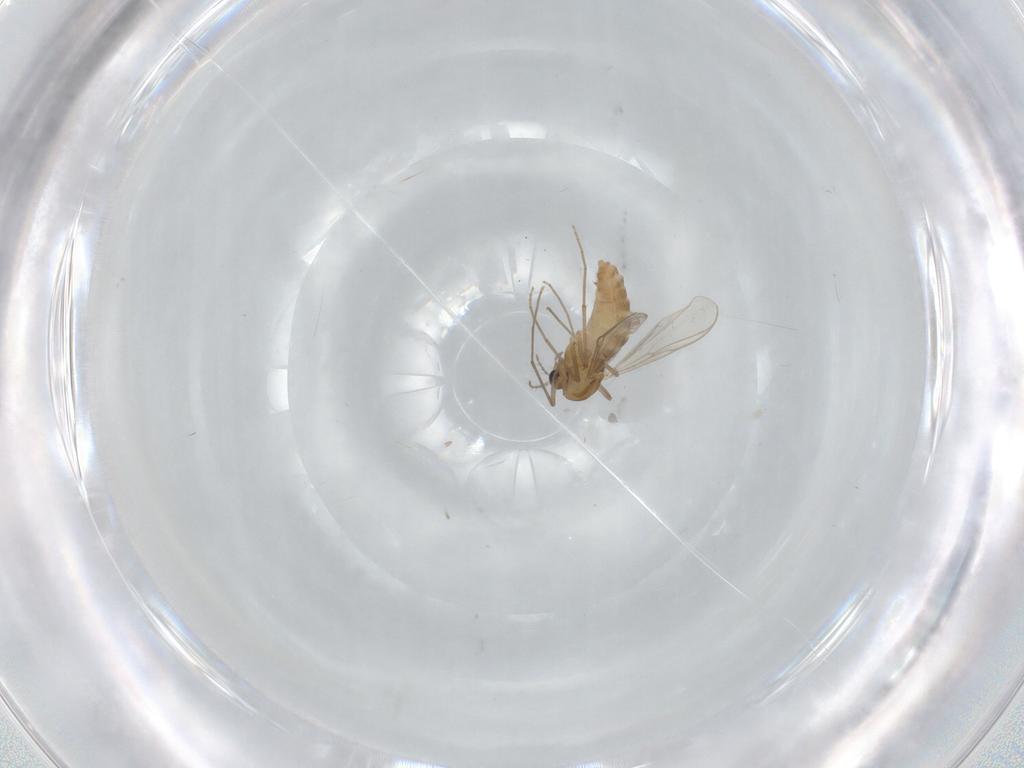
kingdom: Animalia
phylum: Arthropoda
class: Insecta
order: Diptera
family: Chironomidae
